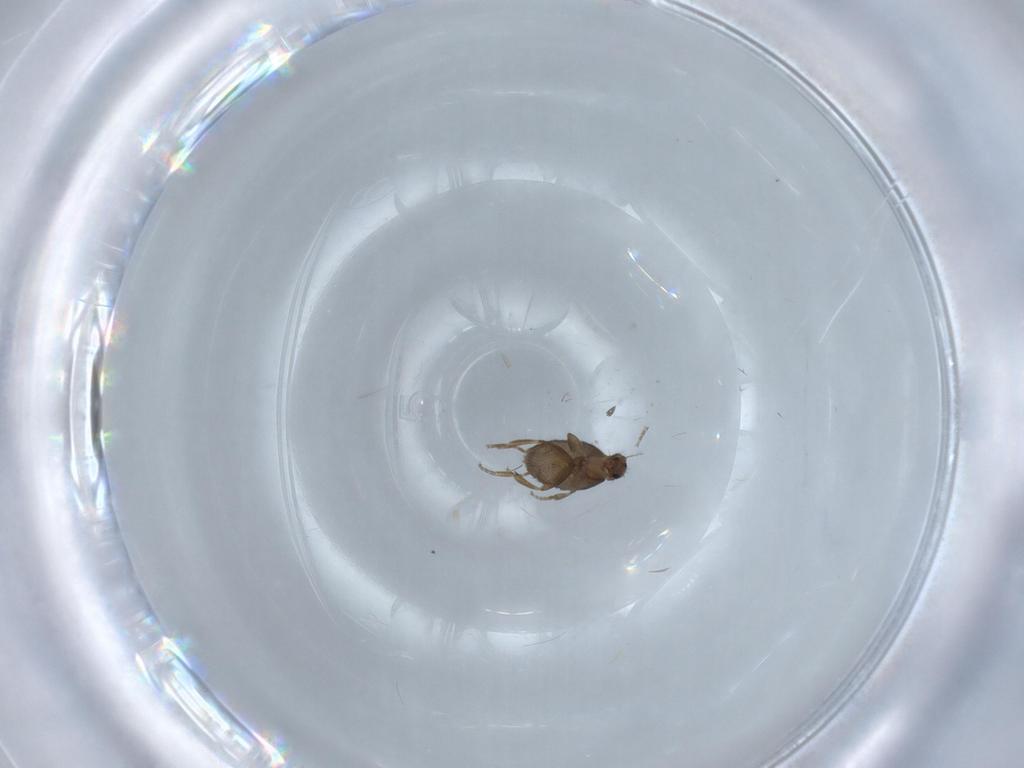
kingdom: Animalia
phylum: Arthropoda
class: Insecta
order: Diptera
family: Phoridae
